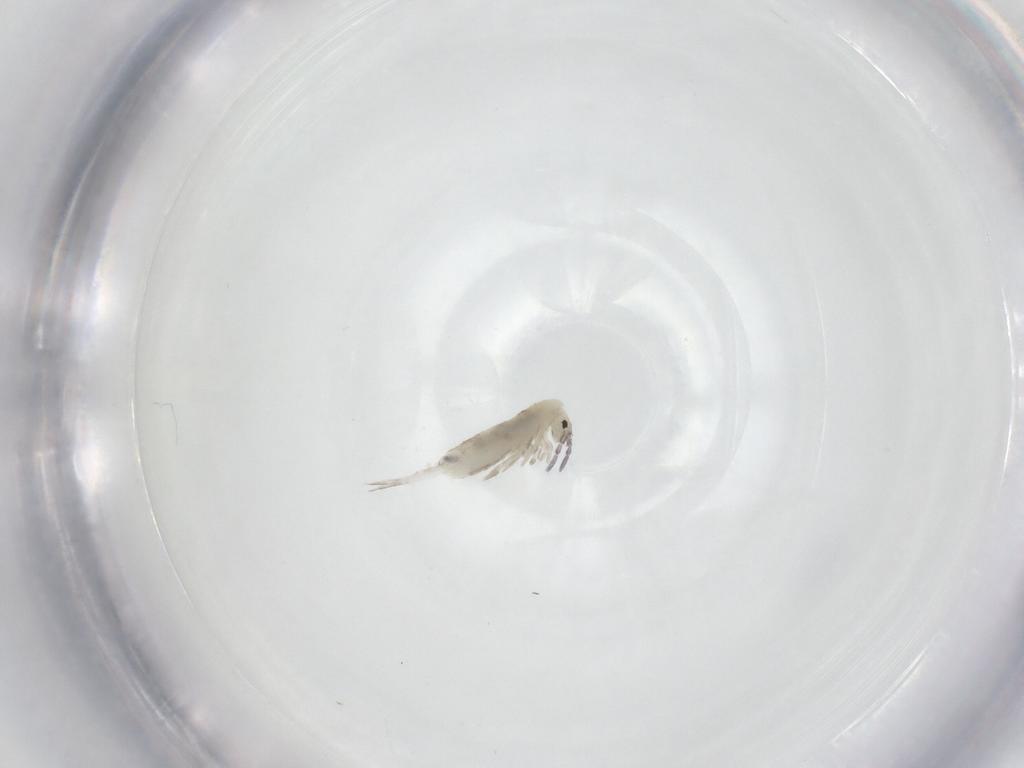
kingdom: Animalia
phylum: Arthropoda
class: Collembola
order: Entomobryomorpha
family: Entomobryidae
